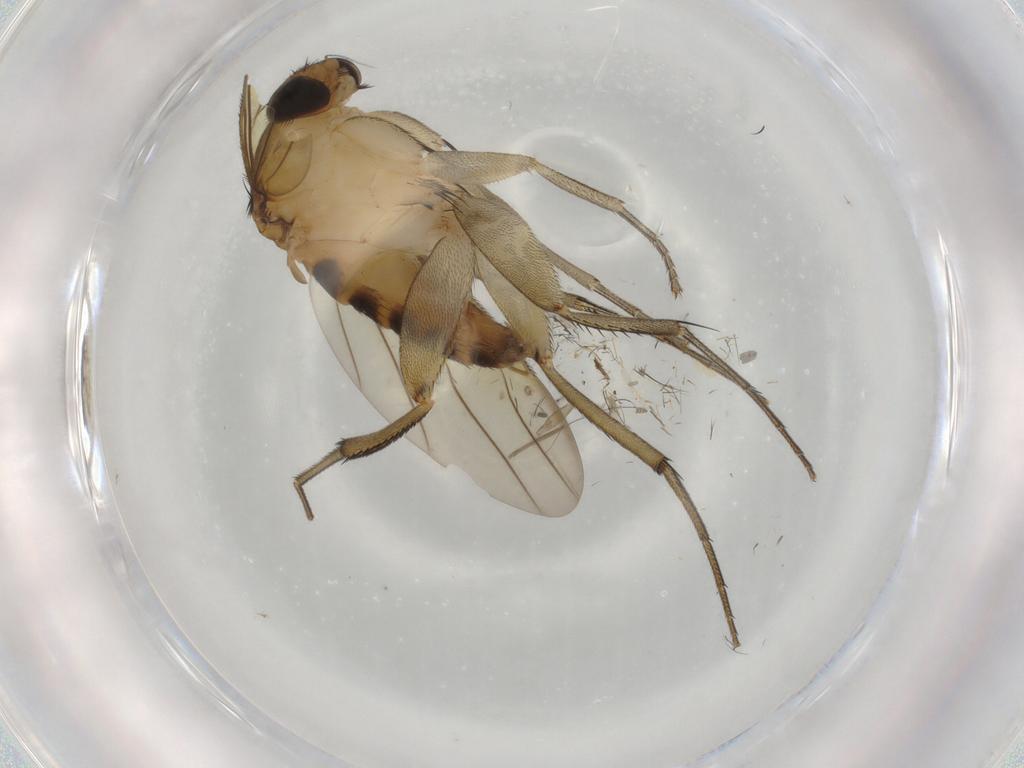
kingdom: Animalia
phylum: Arthropoda
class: Insecta
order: Diptera
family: Phoridae
